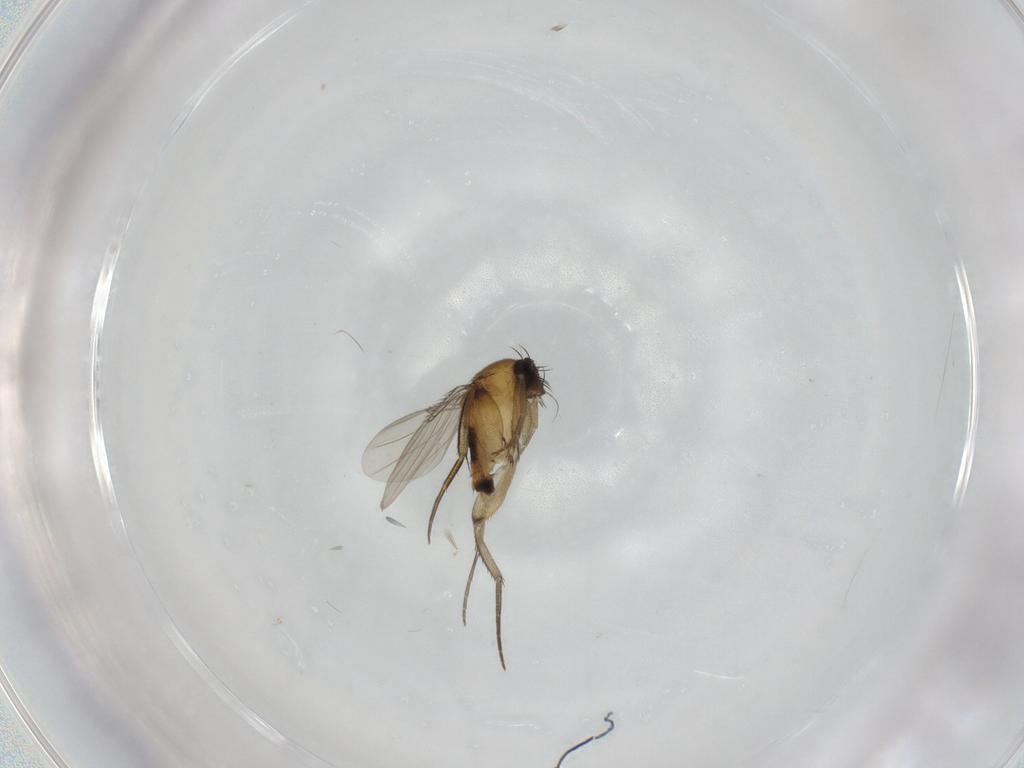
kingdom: Animalia
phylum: Arthropoda
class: Insecta
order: Diptera
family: Phoridae
